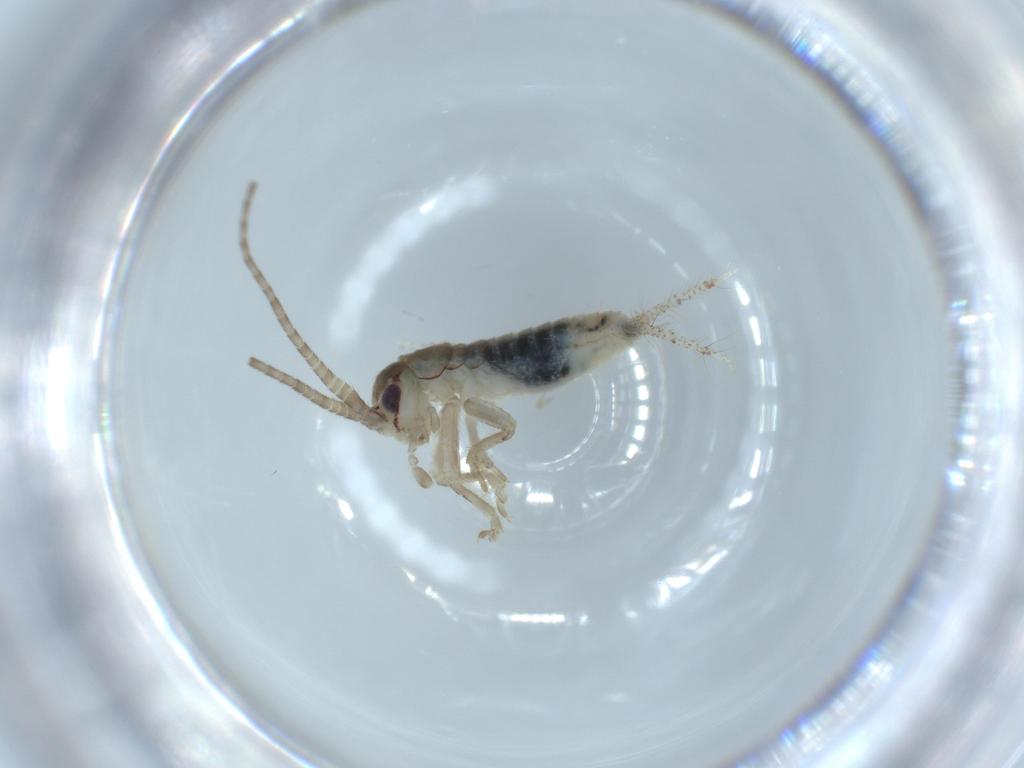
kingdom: Animalia
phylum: Arthropoda
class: Insecta
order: Orthoptera
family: Gryllidae
